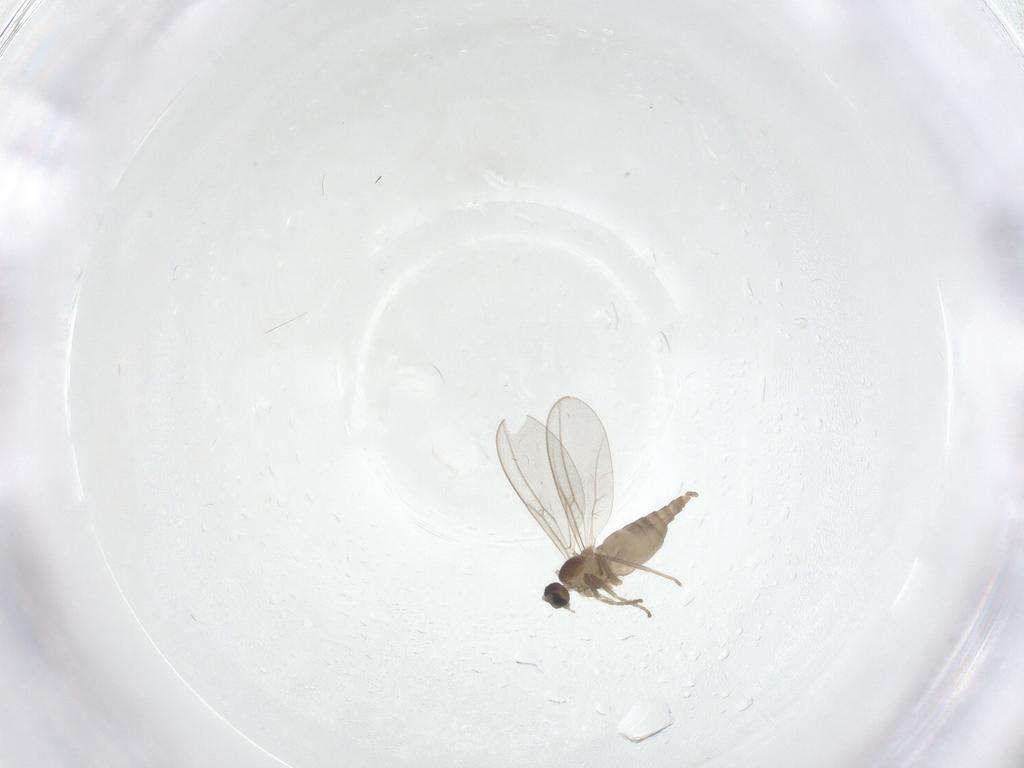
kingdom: Animalia
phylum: Arthropoda
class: Insecta
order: Diptera
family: Cecidomyiidae
